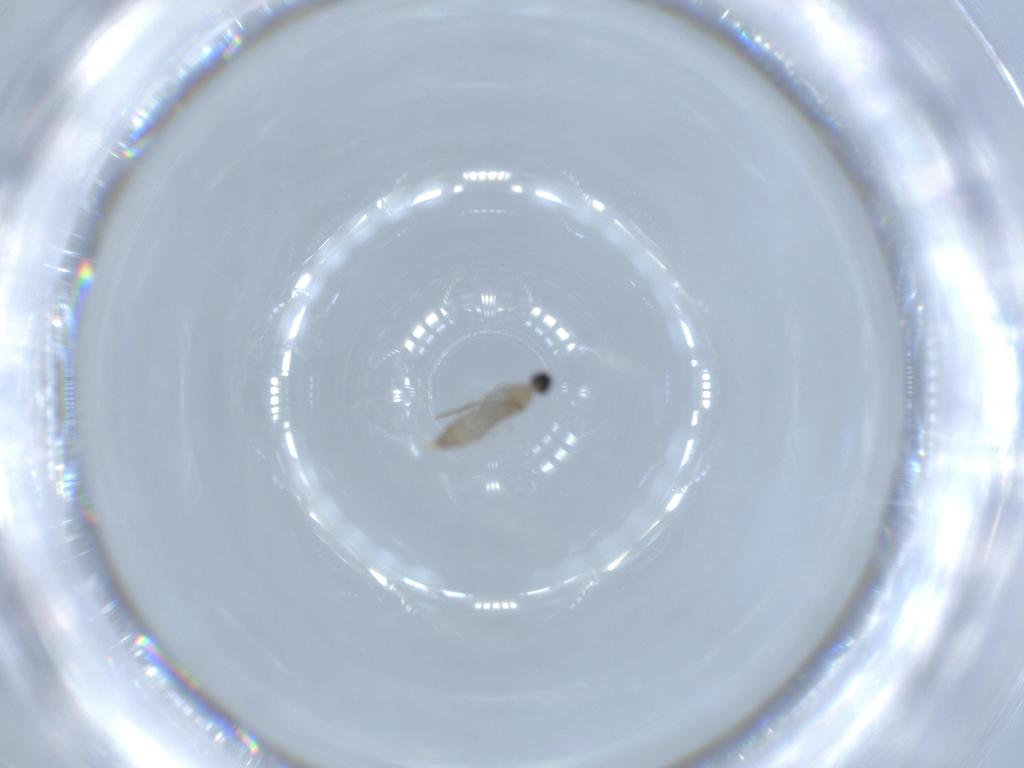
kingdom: Animalia
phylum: Arthropoda
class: Insecta
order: Diptera
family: Cecidomyiidae
